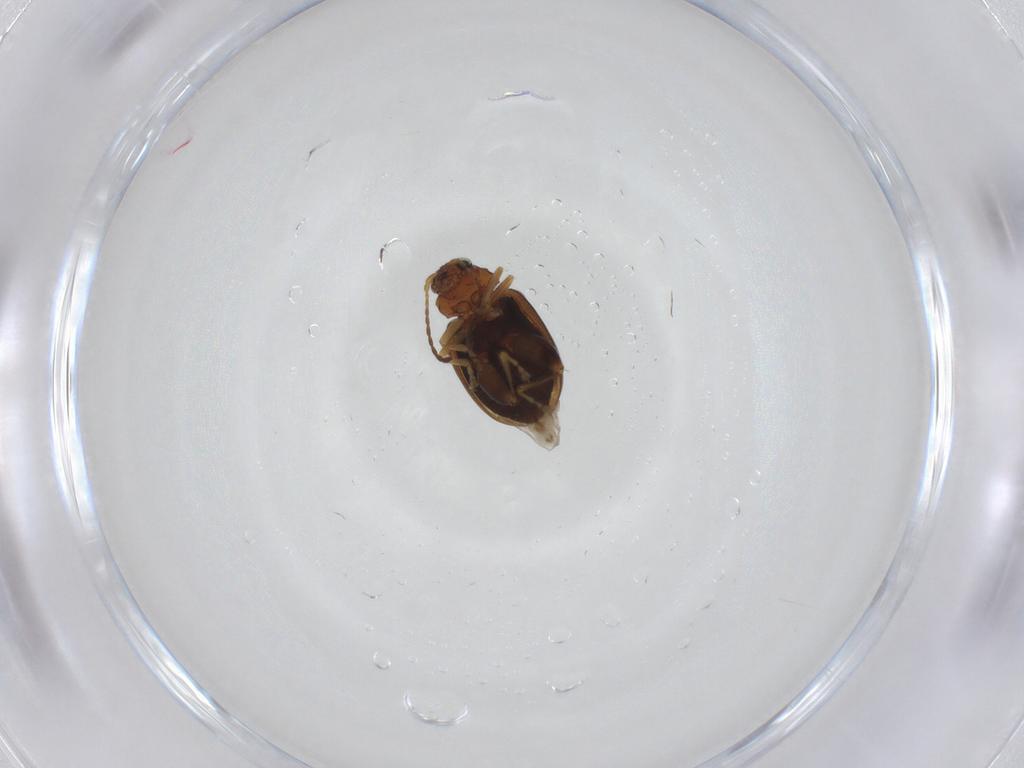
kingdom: Animalia
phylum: Arthropoda
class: Insecta
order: Coleoptera
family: Chrysomelidae
